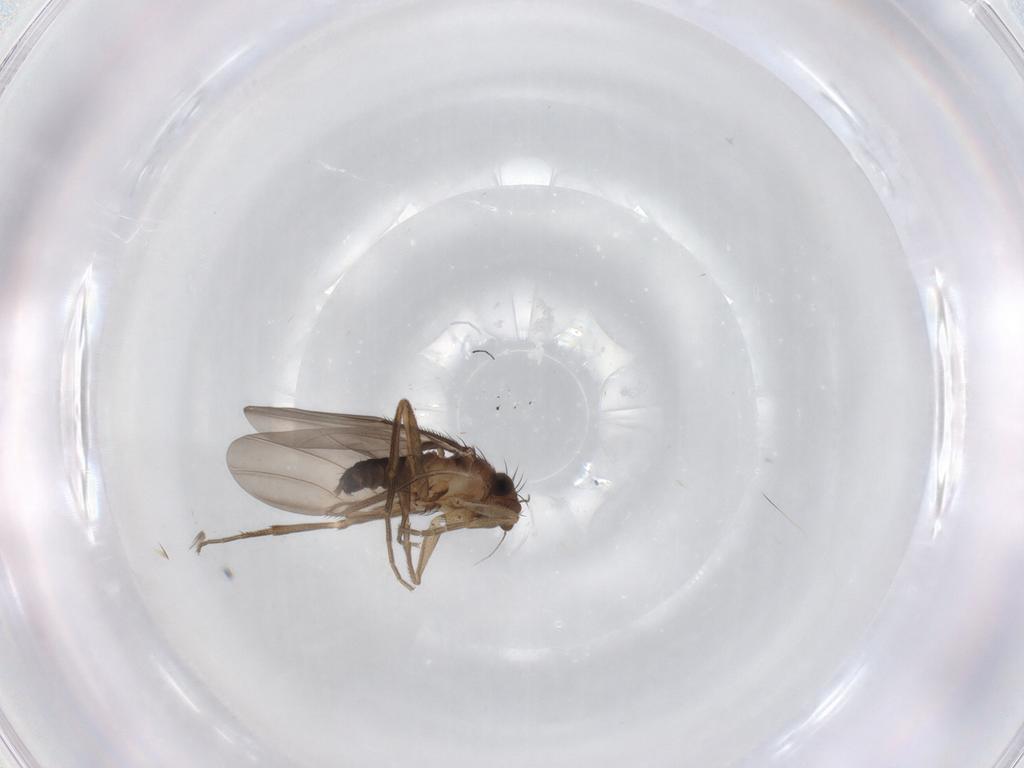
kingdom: Animalia
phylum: Arthropoda
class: Insecta
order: Diptera
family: Phoridae
